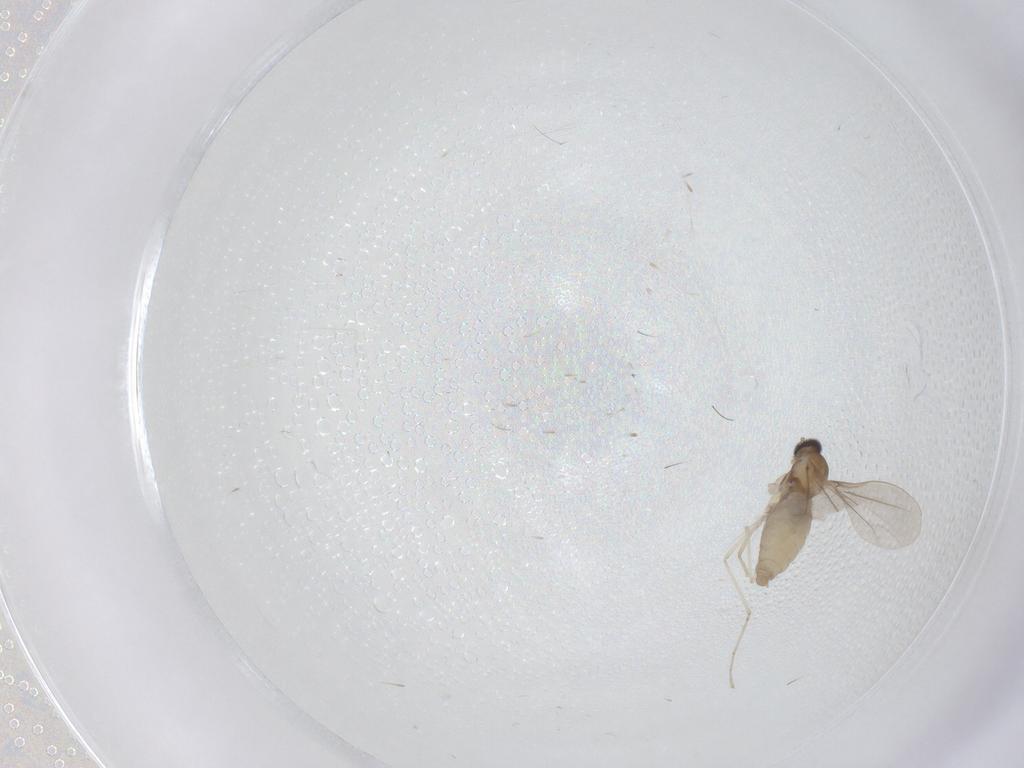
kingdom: Animalia
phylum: Arthropoda
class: Insecta
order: Diptera
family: Cecidomyiidae
